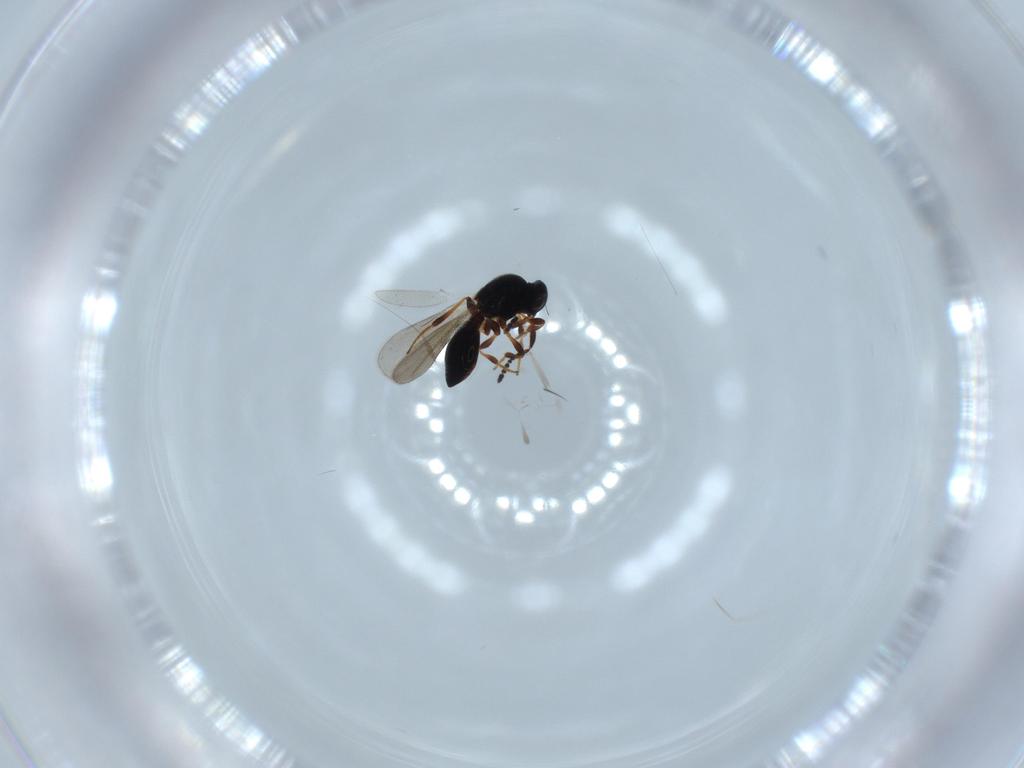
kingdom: Animalia
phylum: Arthropoda
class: Insecta
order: Hymenoptera
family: Platygastridae
